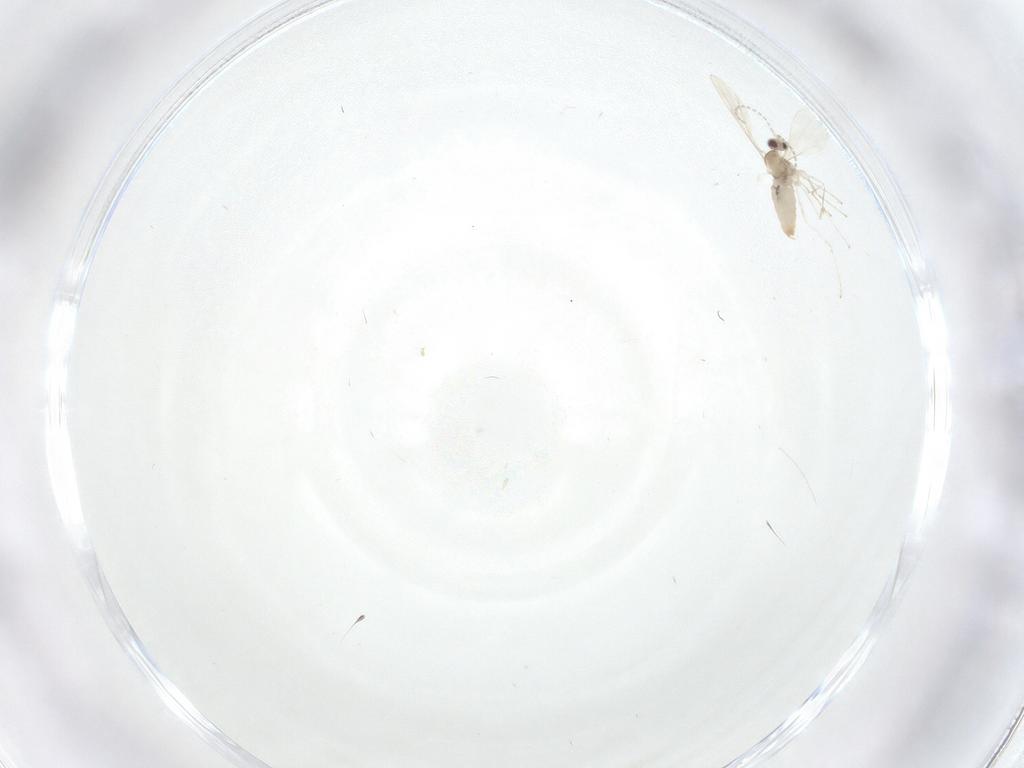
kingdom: Animalia
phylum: Arthropoda
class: Insecta
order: Diptera
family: Cecidomyiidae
